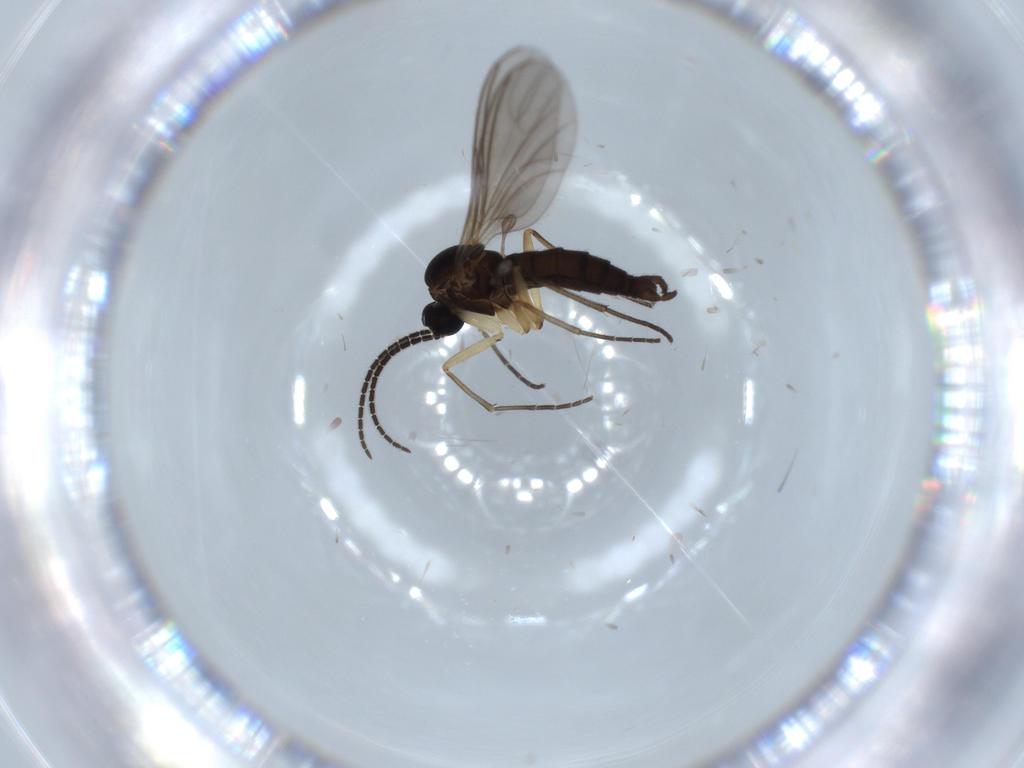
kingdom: Animalia
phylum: Arthropoda
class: Insecta
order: Diptera
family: Sciaridae
